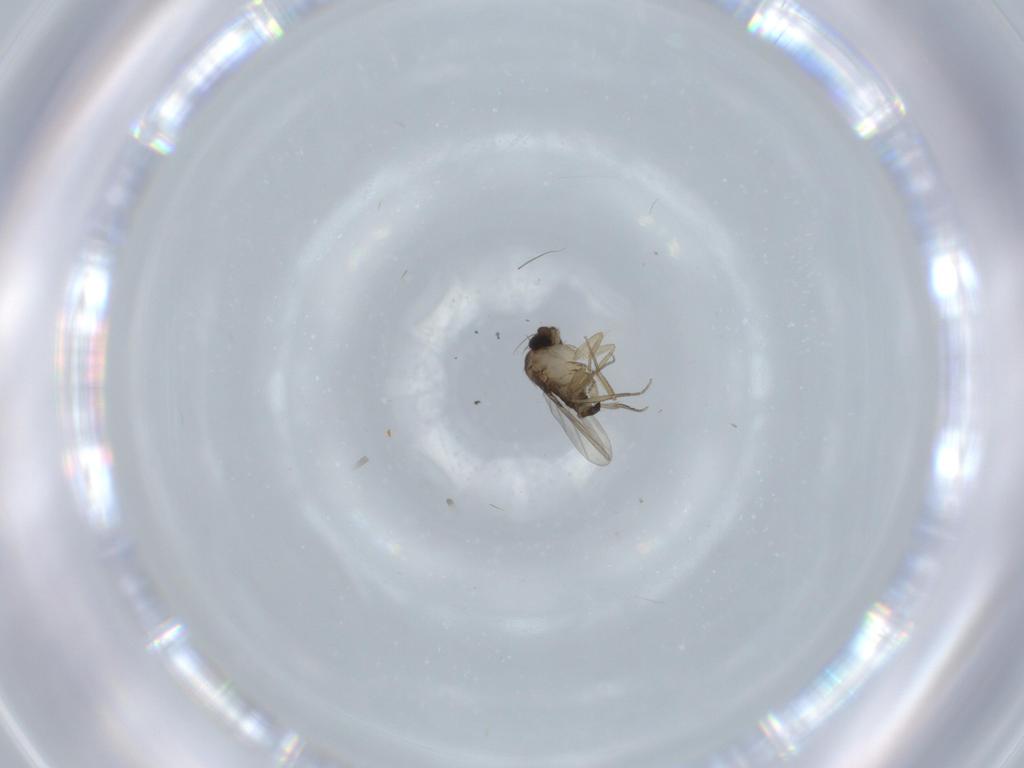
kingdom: Animalia
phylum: Arthropoda
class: Insecta
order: Diptera
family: Phoridae
